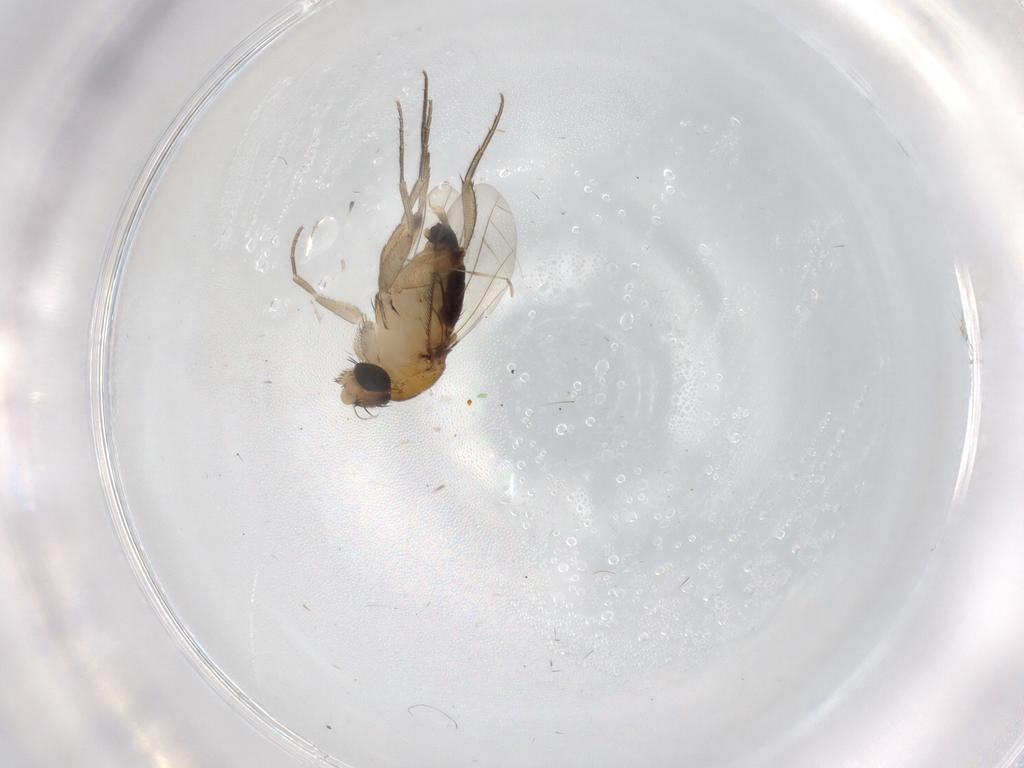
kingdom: Animalia
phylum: Arthropoda
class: Insecta
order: Diptera
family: Phoridae
